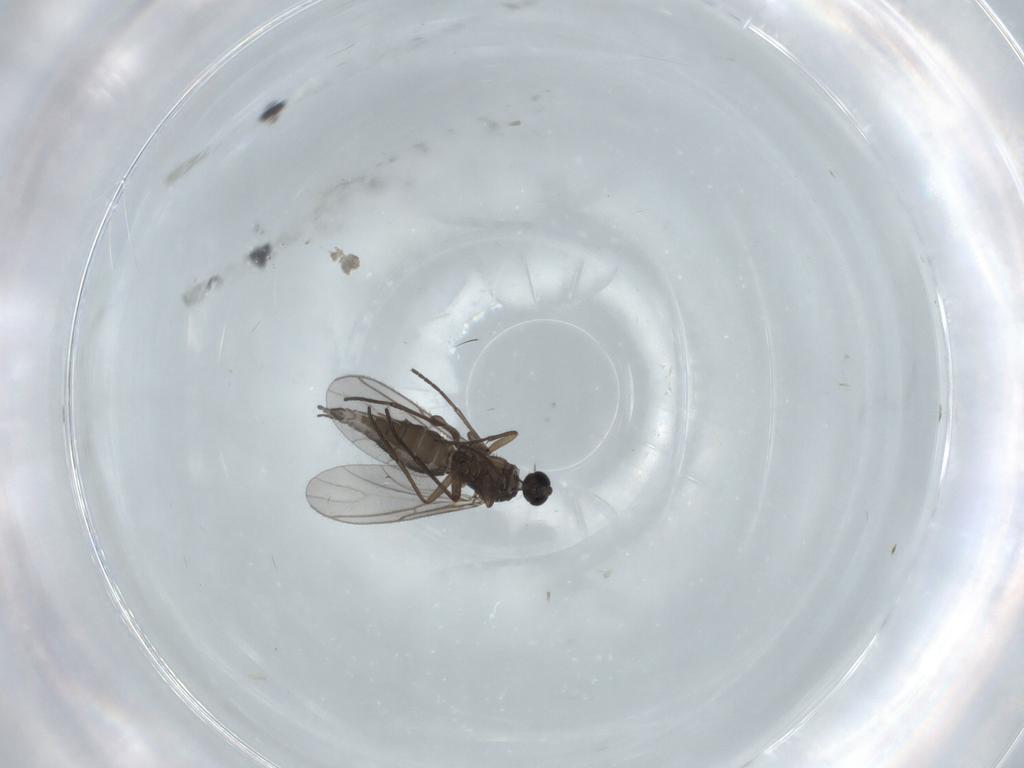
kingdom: Animalia
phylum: Arthropoda
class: Insecta
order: Diptera
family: Sciaridae
